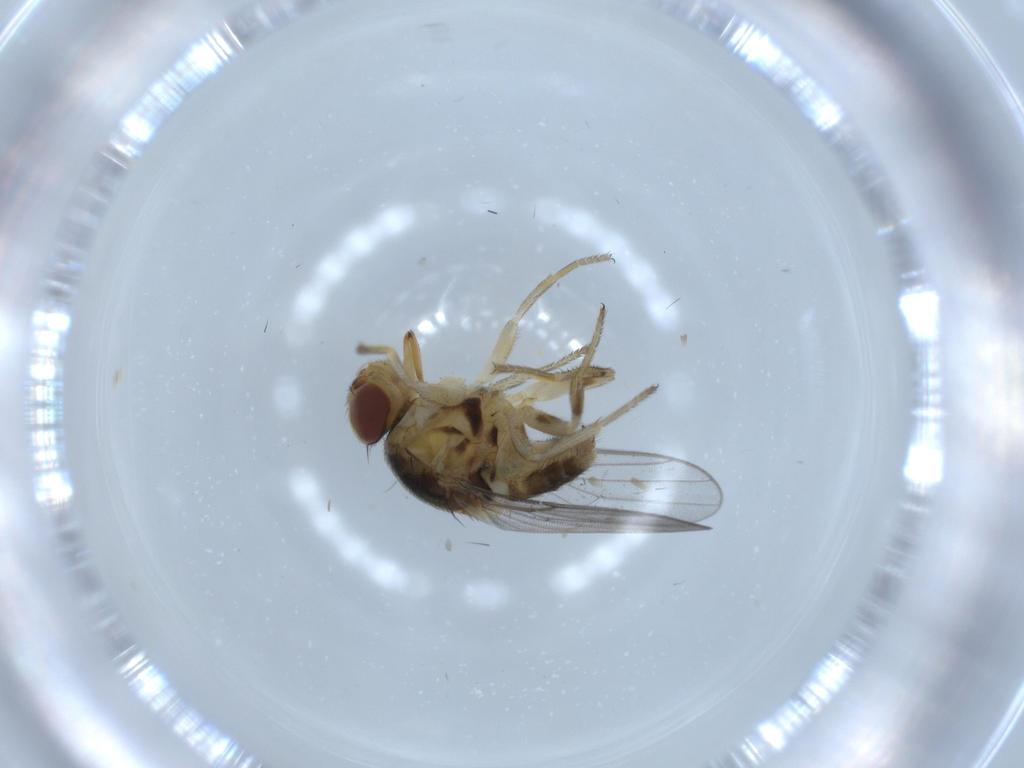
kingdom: Animalia
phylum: Arthropoda
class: Insecta
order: Diptera
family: Chloropidae
